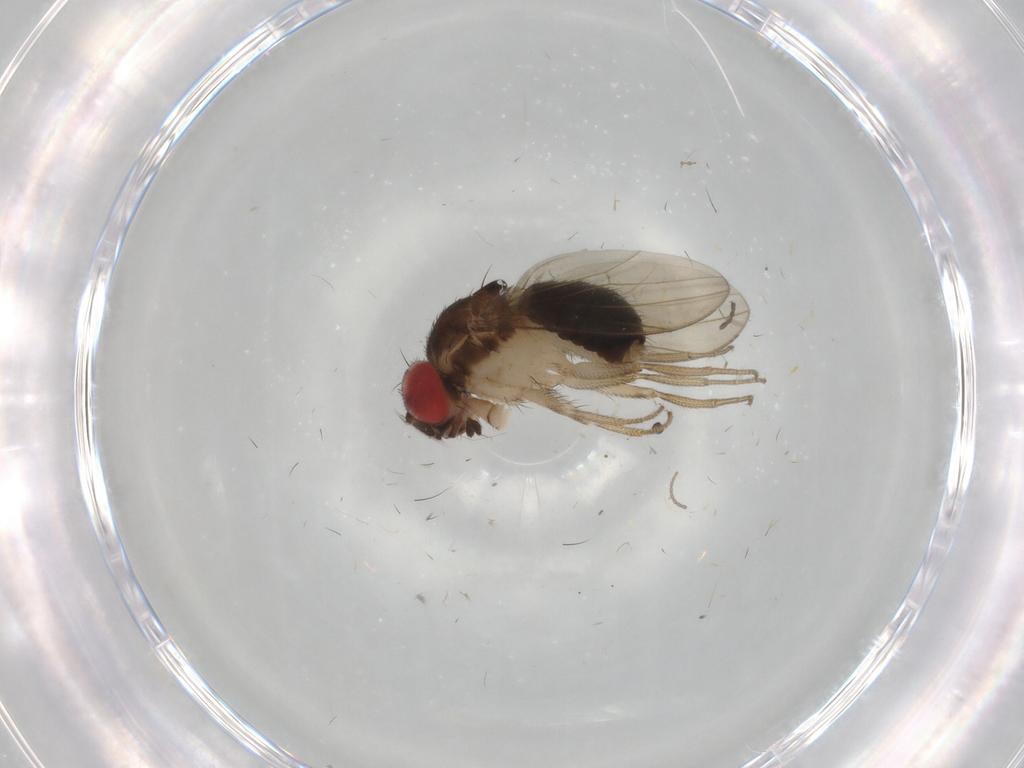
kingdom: Animalia
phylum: Arthropoda
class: Insecta
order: Diptera
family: Chironomidae
